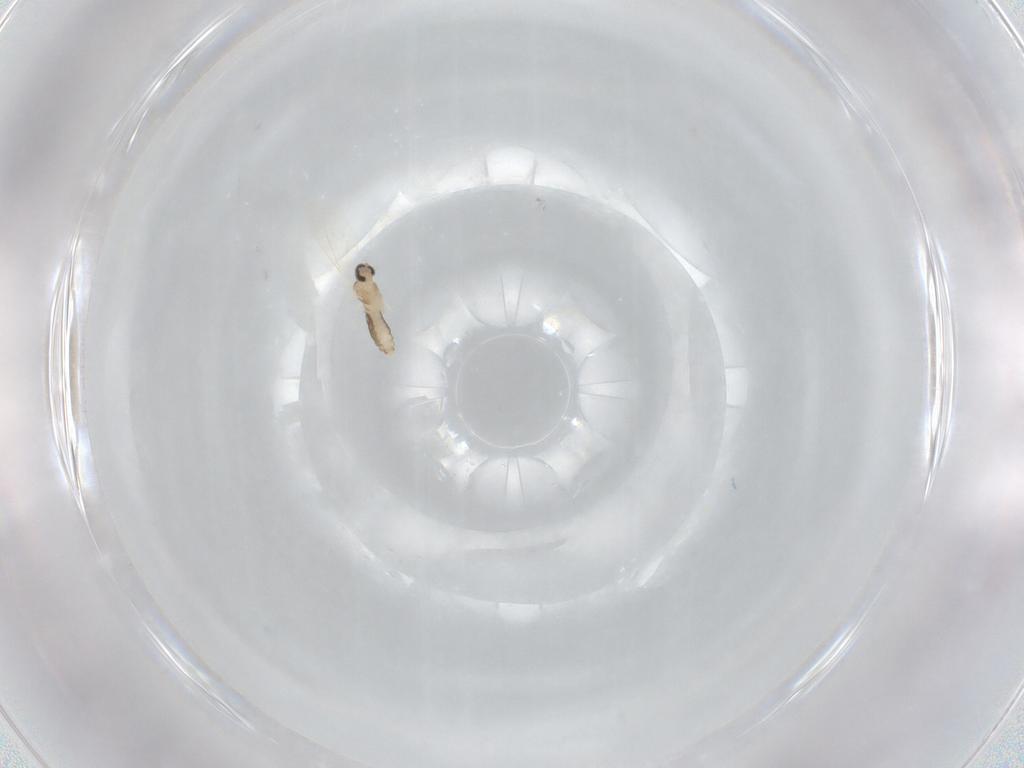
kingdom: Animalia
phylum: Arthropoda
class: Insecta
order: Diptera
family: Cecidomyiidae
